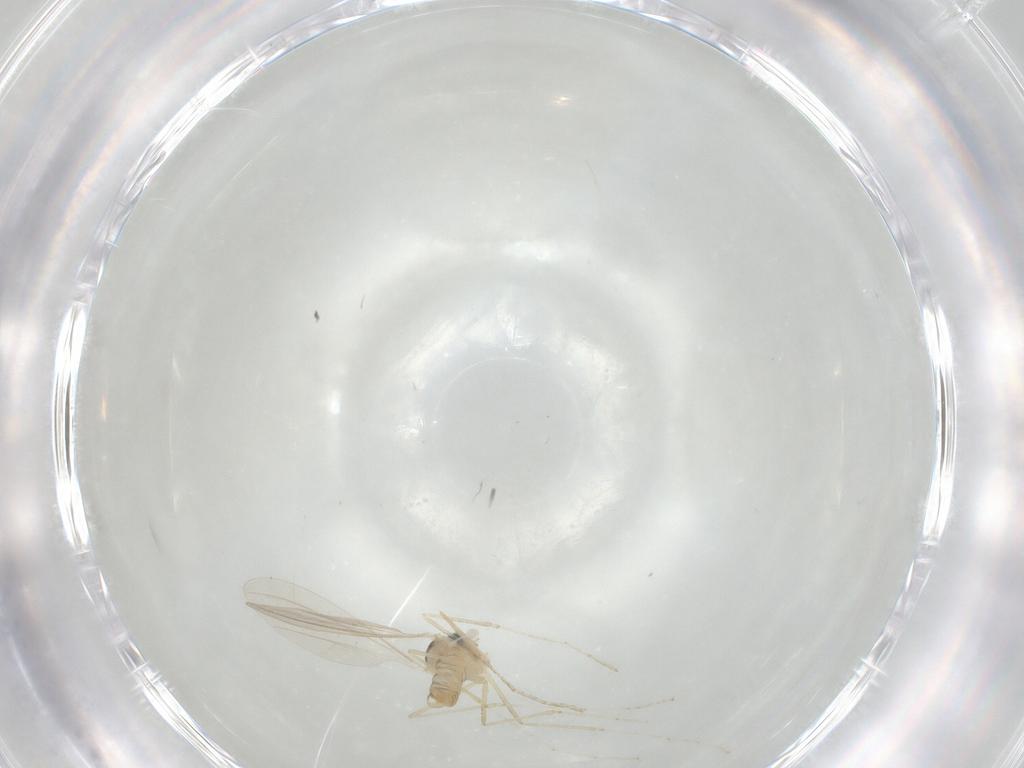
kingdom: Animalia
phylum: Arthropoda
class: Insecta
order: Diptera
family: Cecidomyiidae
